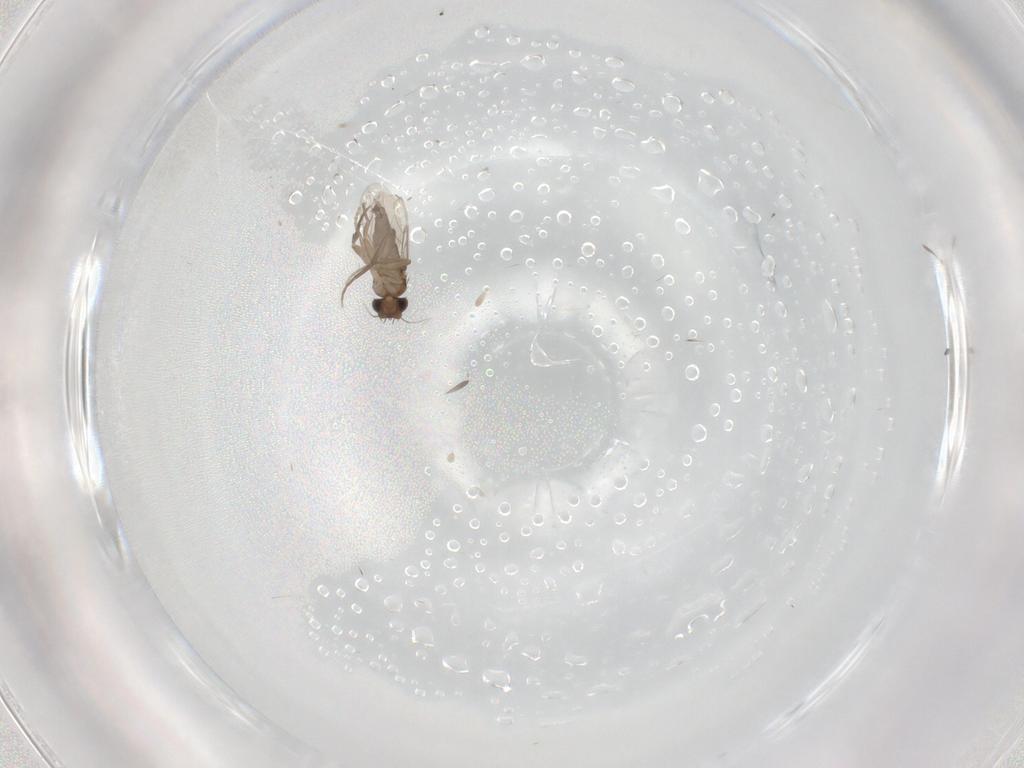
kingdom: Animalia
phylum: Arthropoda
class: Insecta
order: Diptera
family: Phoridae
